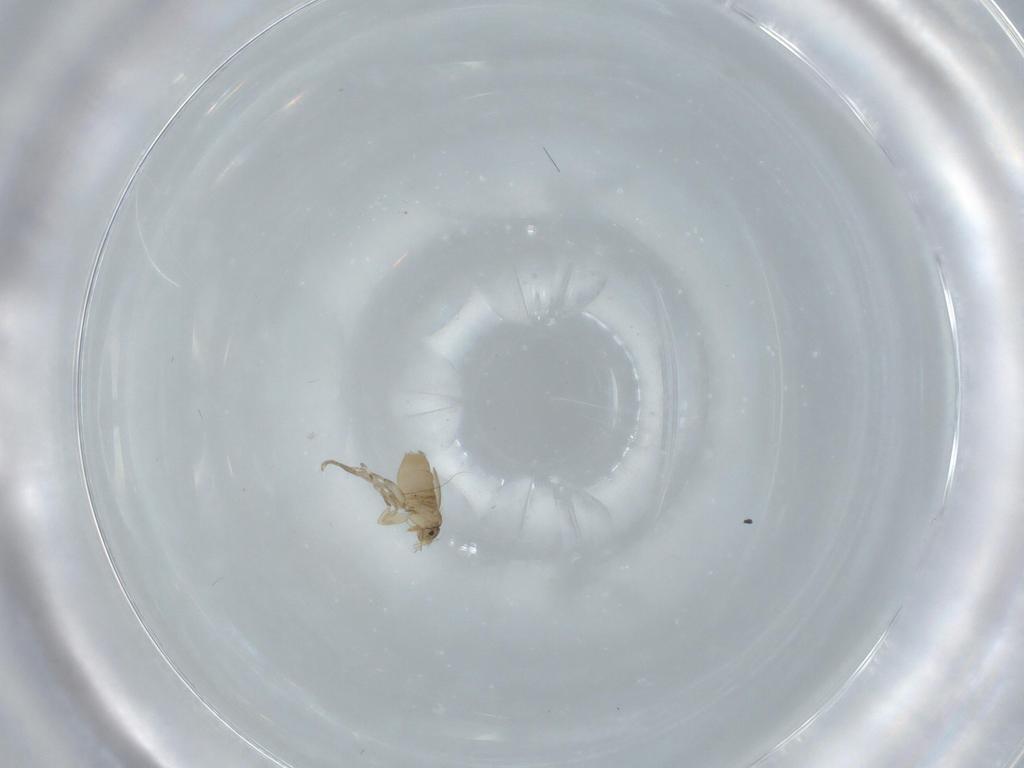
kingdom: Animalia
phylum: Arthropoda
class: Insecta
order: Diptera
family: Phoridae
